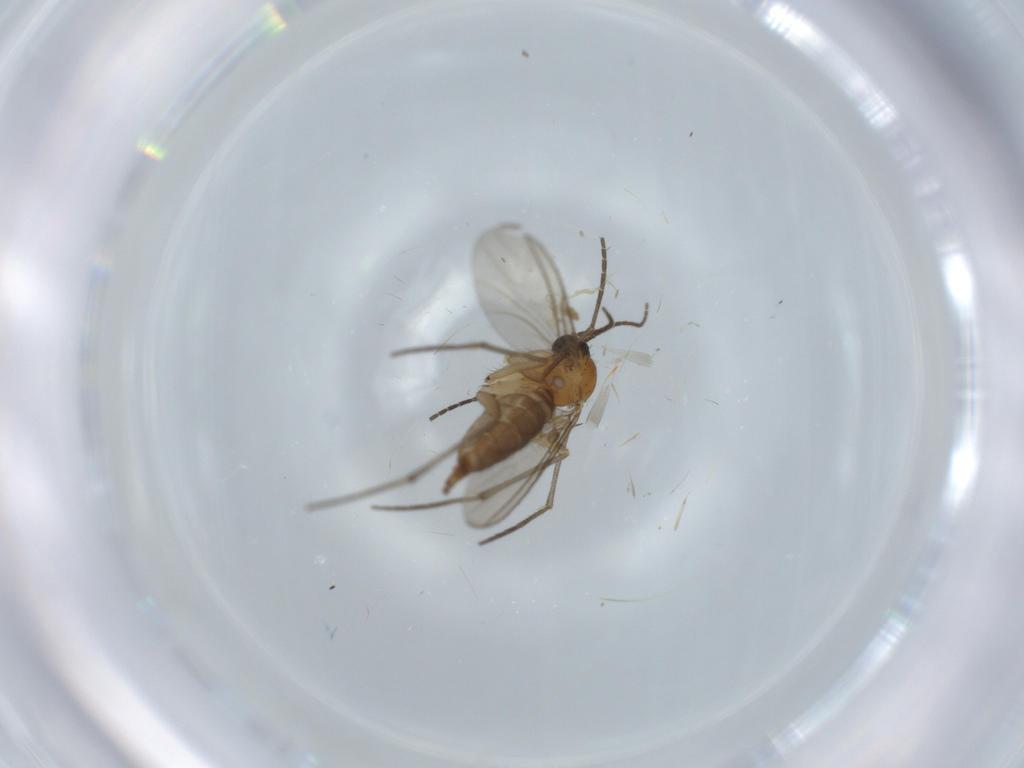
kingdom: Animalia
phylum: Arthropoda
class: Insecta
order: Diptera
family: Sciaridae
